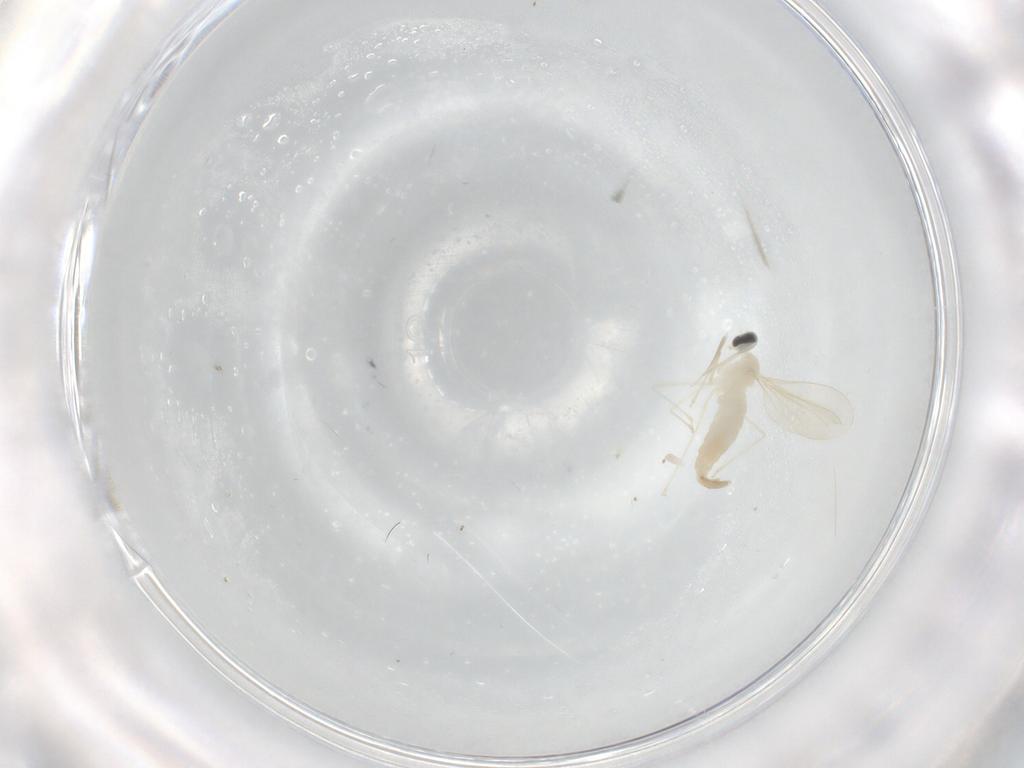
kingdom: Animalia
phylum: Arthropoda
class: Insecta
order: Diptera
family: Cecidomyiidae
